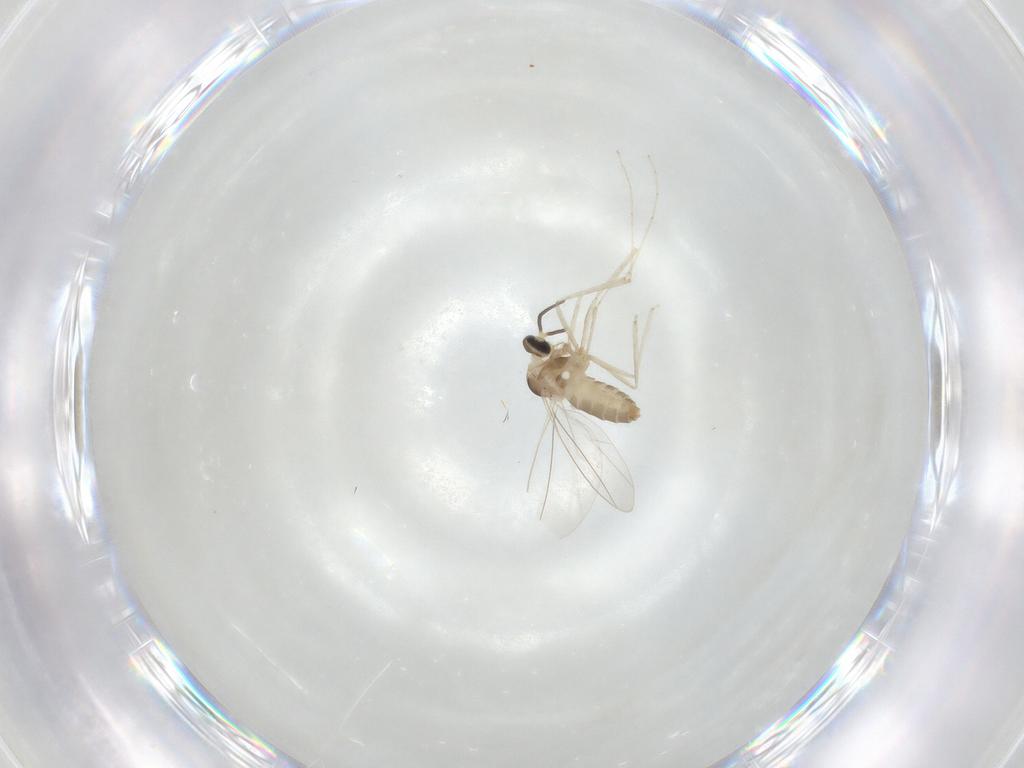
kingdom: Animalia
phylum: Arthropoda
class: Insecta
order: Diptera
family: Cecidomyiidae
